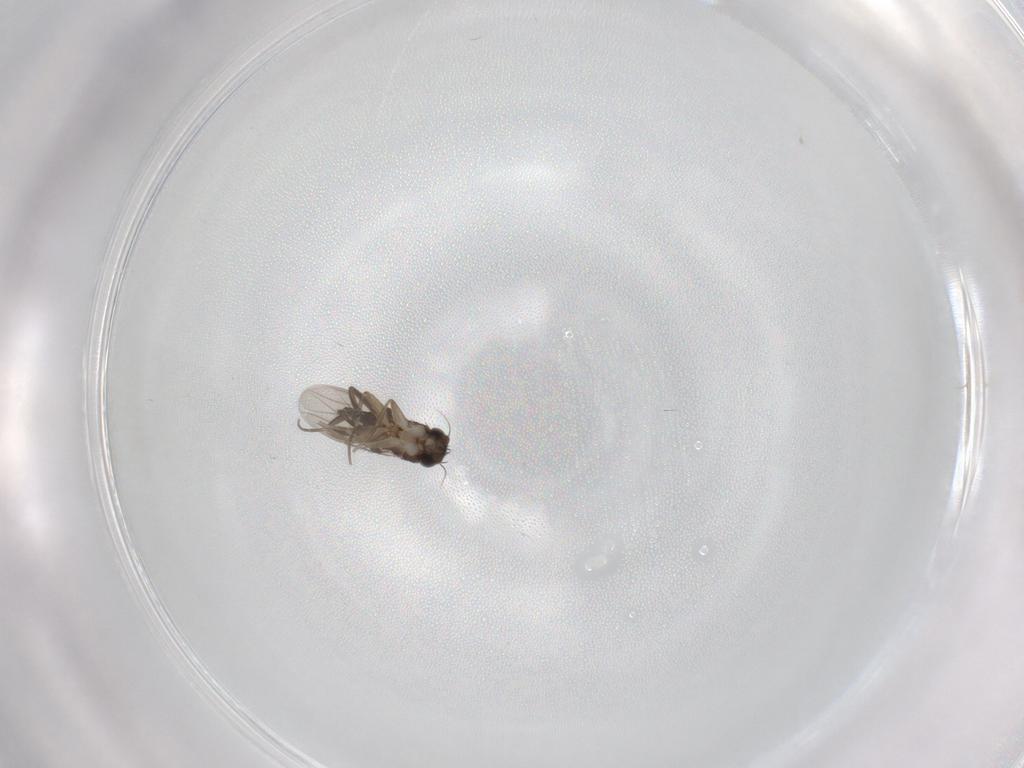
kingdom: Animalia
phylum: Arthropoda
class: Insecta
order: Diptera
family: Phoridae
